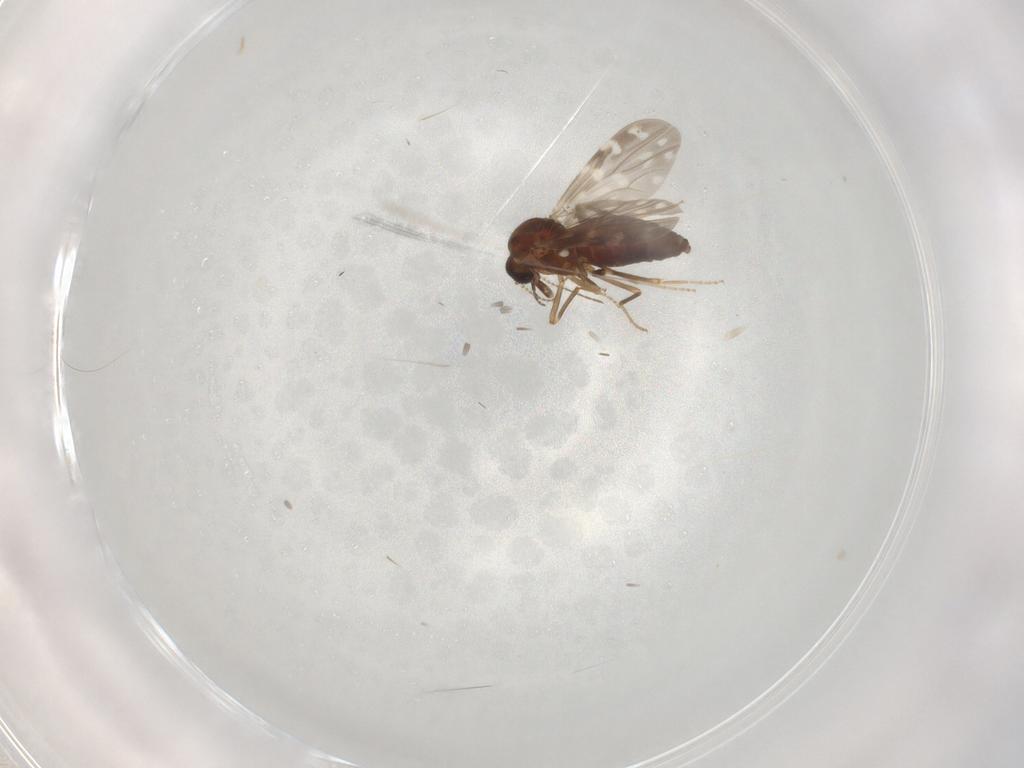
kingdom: Animalia
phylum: Arthropoda
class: Insecta
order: Diptera
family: Ceratopogonidae
